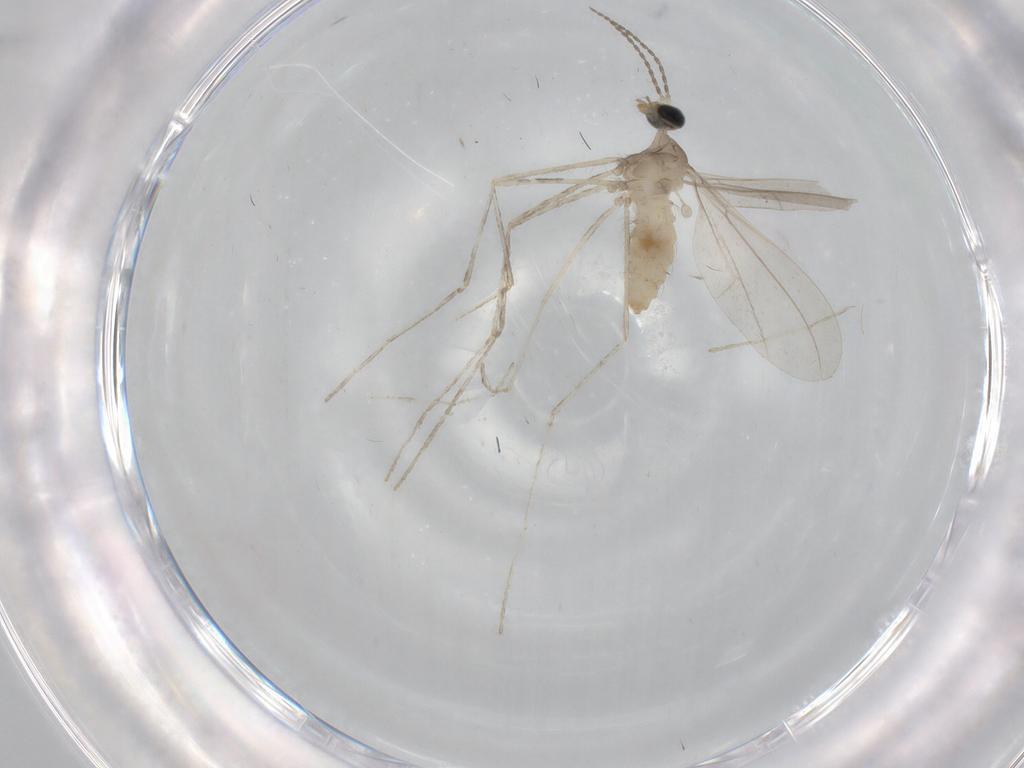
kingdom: Animalia
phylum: Arthropoda
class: Insecta
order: Diptera
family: Cecidomyiidae
